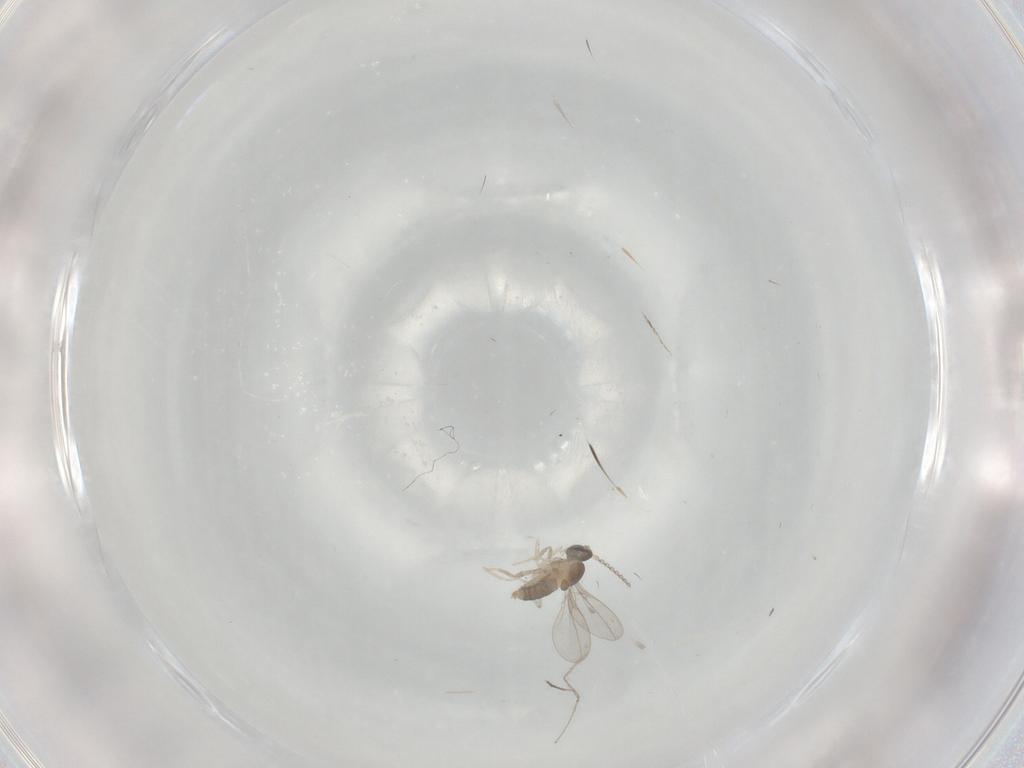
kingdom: Animalia
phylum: Arthropoda
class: Insecta
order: Diptera
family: Cecidomyiidae
